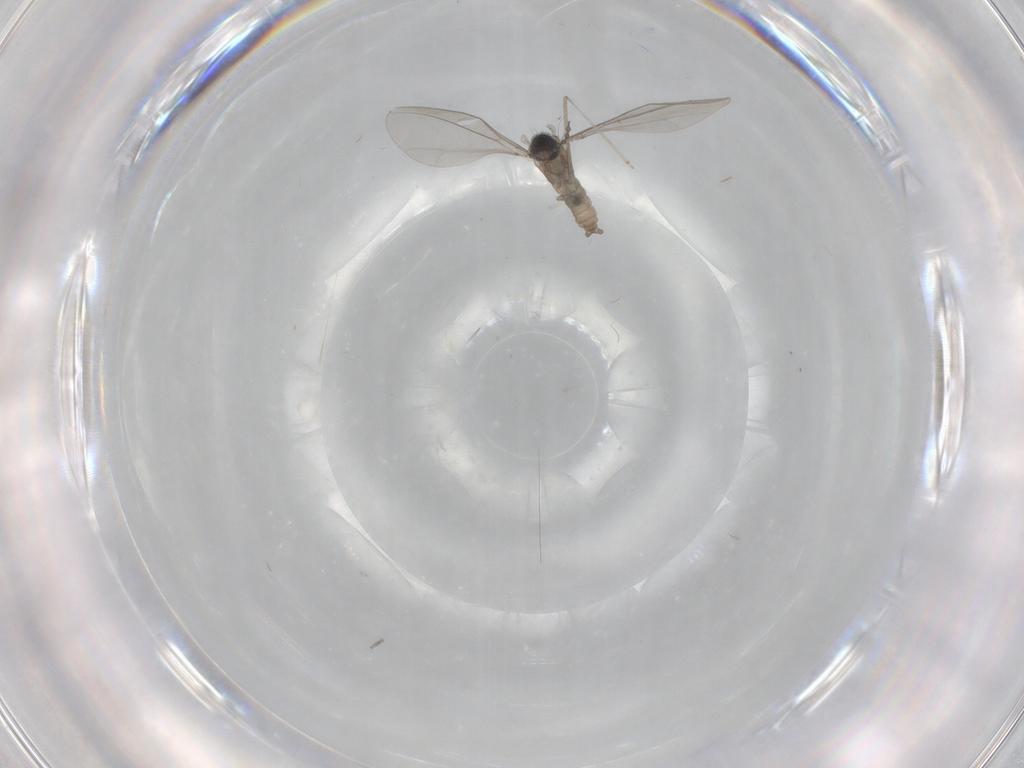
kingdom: Animalia
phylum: Arthropoda
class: Insecta
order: Diptera
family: Cecidomyiidae
